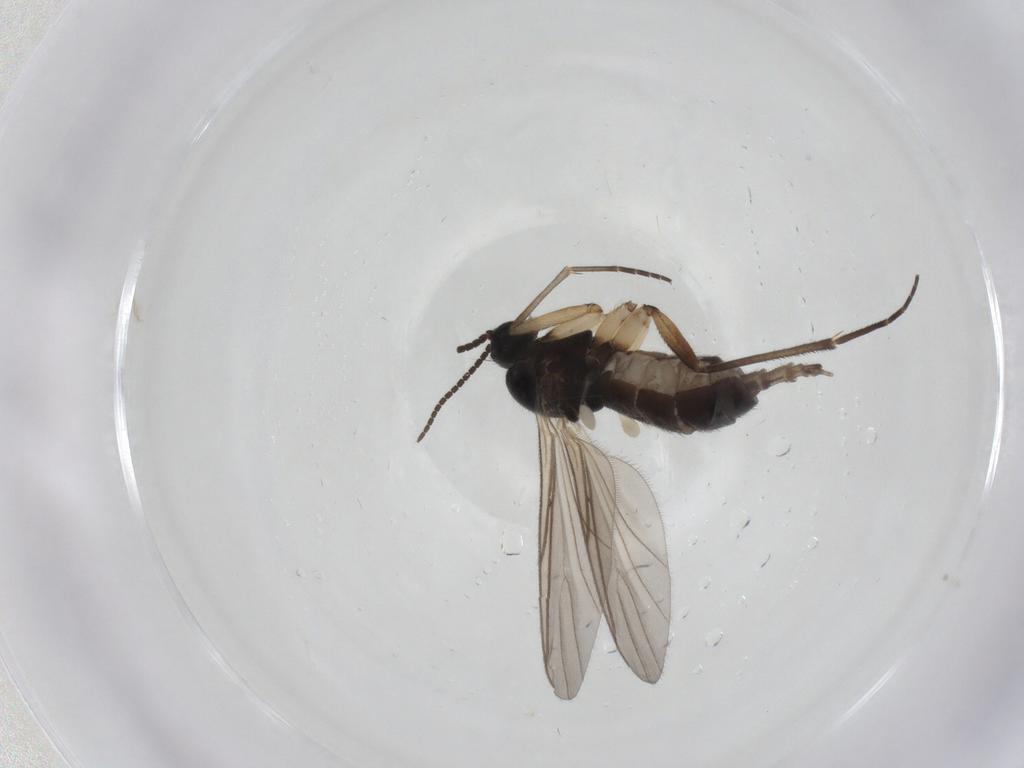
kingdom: Animalia
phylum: Arthropoda
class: Insecta
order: Diptera
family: Sciaridae
